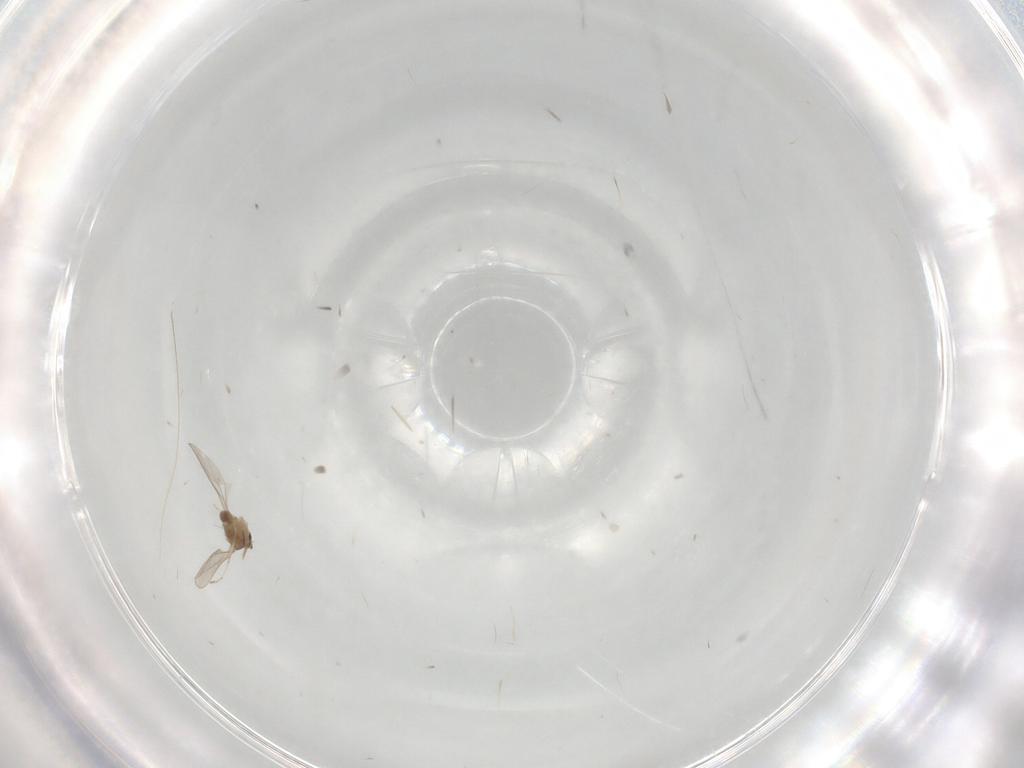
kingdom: Animalia
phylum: Arthropoda
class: Insecta
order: Diptera
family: Cecidomyiidae
